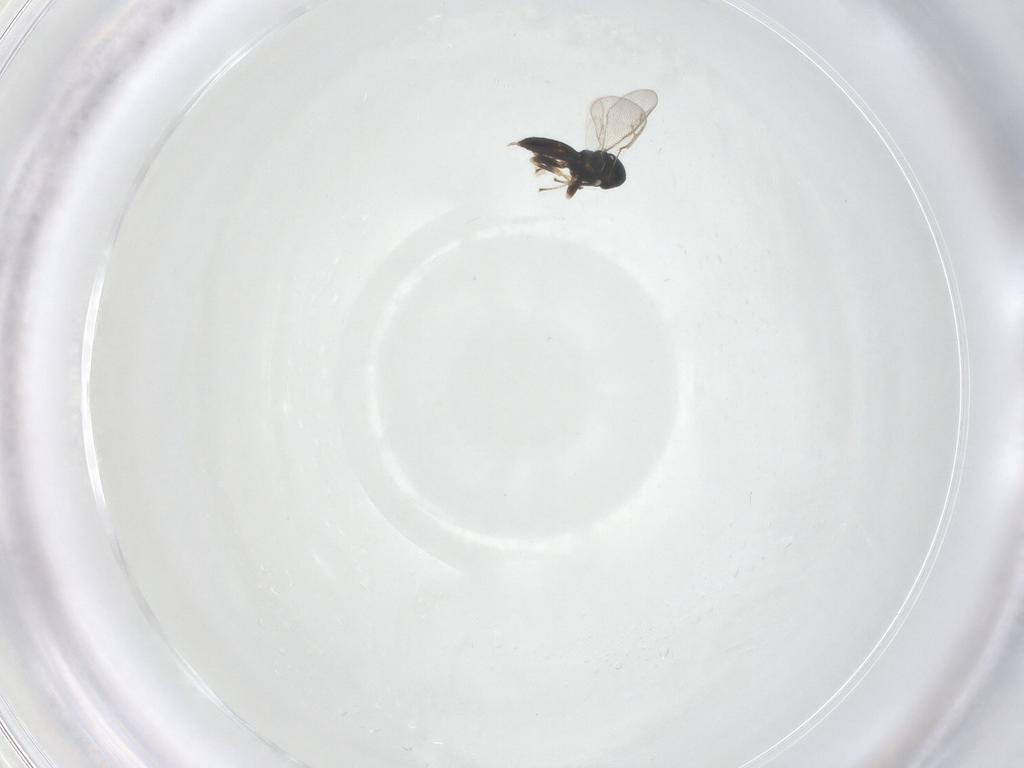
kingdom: Animalia
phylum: Arthropoda
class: Insecta
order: Hymenoptera
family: Pteromalidae
